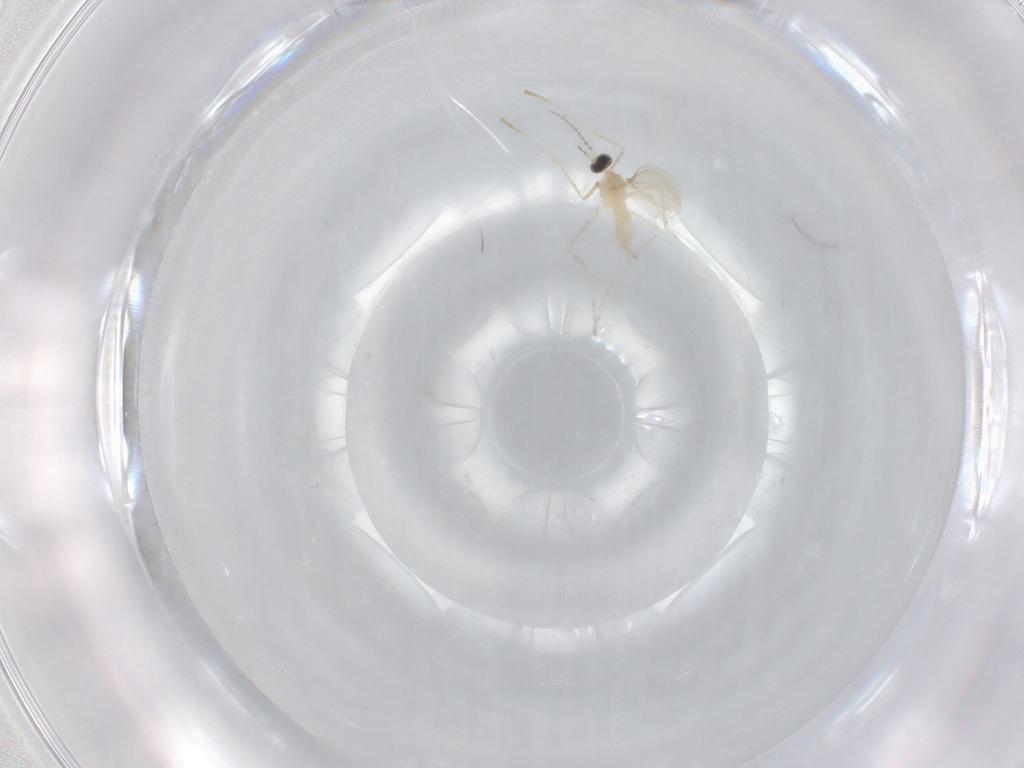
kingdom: Animalia
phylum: Arthropoda
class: Insecta
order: Diptera
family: Cecidomyiidae
